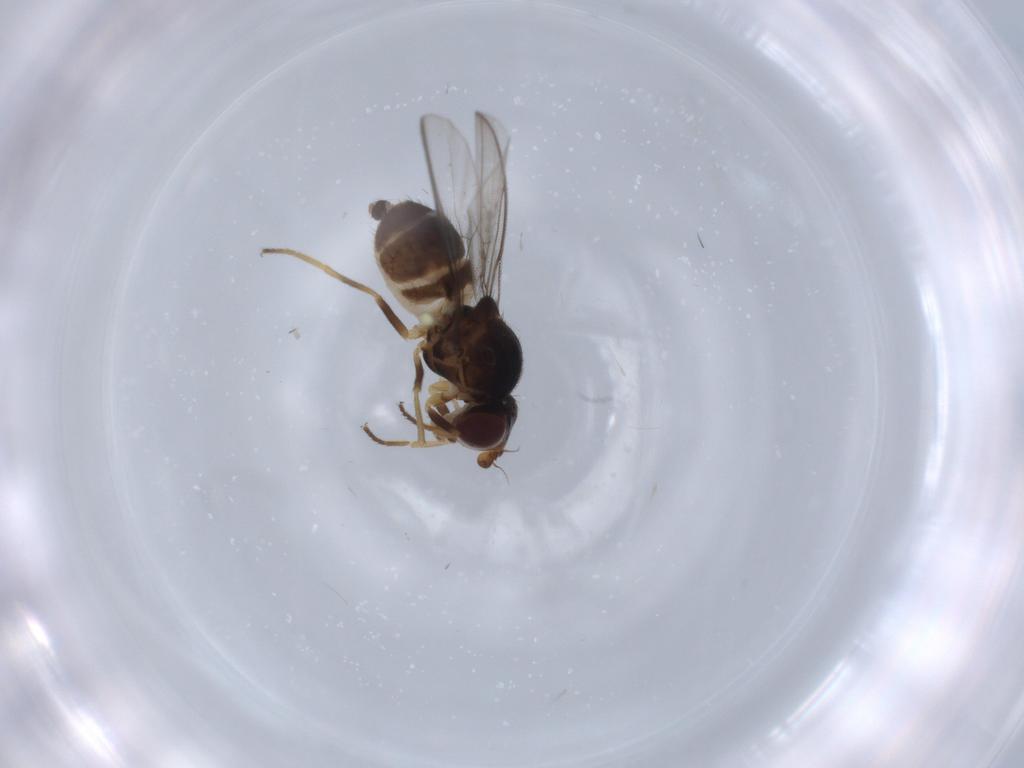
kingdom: Animalia
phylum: Arthropoda
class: Insecta
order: Diptera
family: Chloropidae
